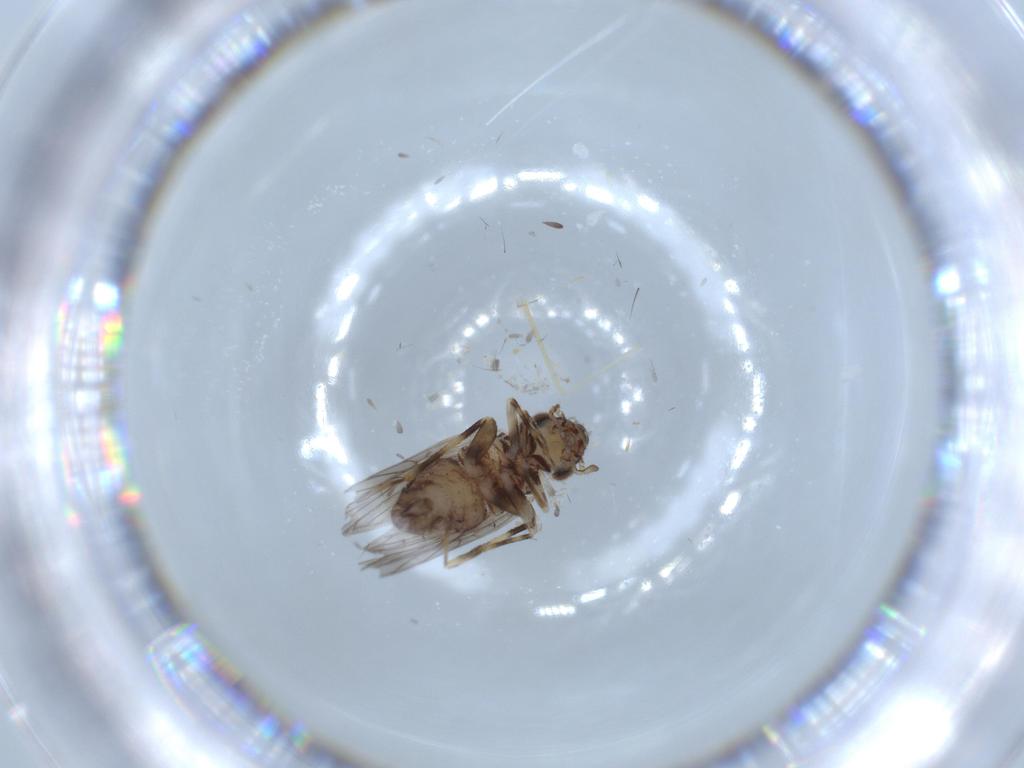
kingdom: Animalia
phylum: Arthropoda
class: Insecta
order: Psocodea
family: Lepidopsocidae
